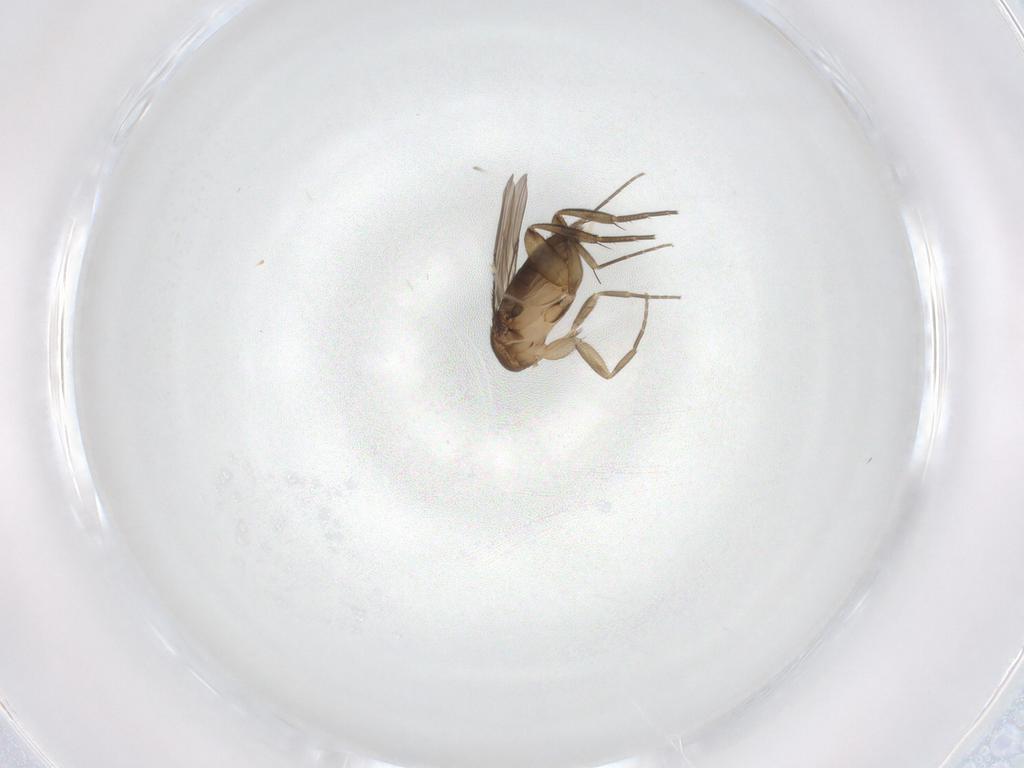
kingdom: Animalia
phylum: Arthropoda
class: Insecta
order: Diptera
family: Phoridae
